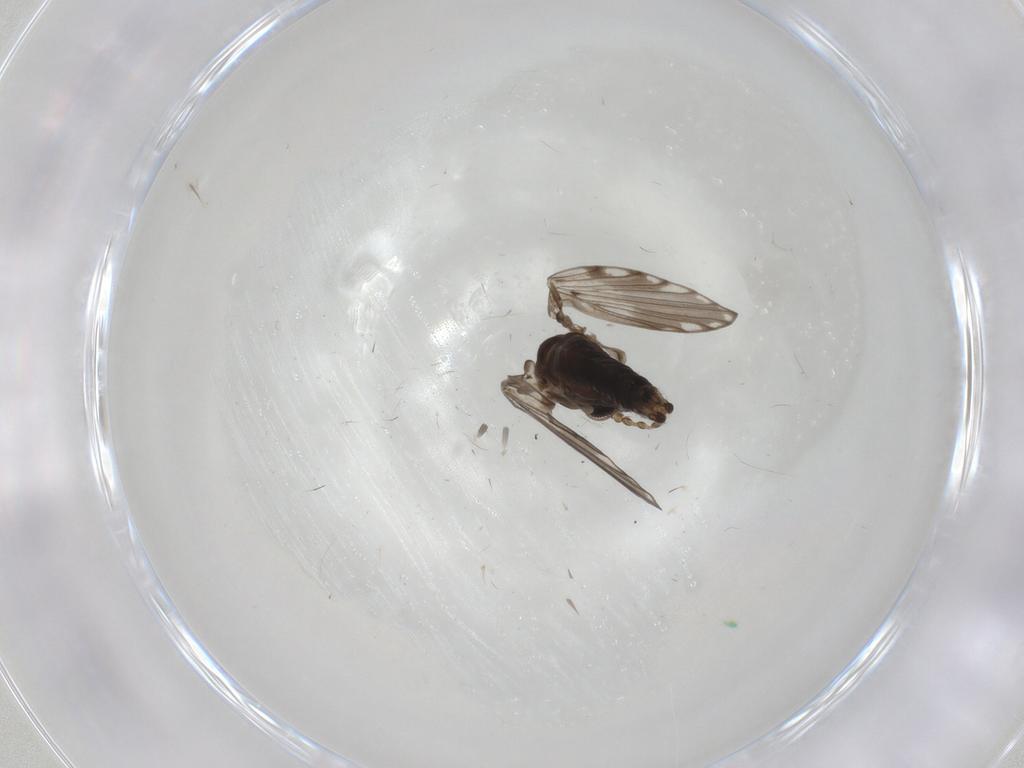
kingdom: Animalia
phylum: Arthropoda
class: Insecta
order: Diptera
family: Psychodidae
